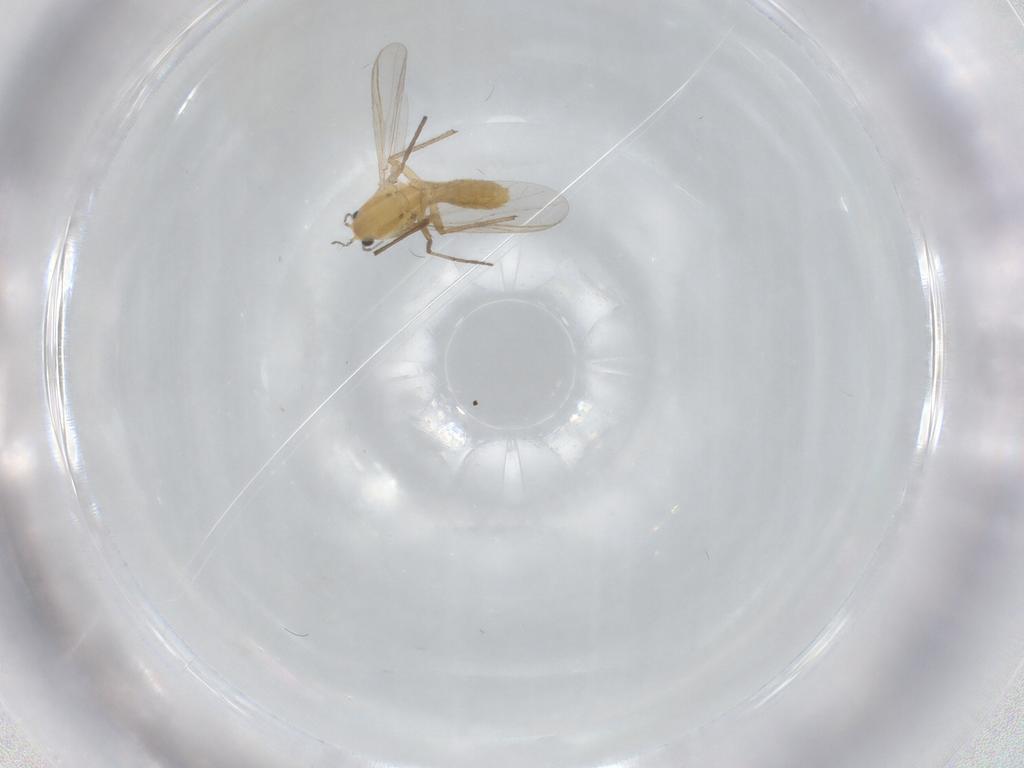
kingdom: Animalia
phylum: Arthropoda
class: Insecta
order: Diptera
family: Chironomidae
